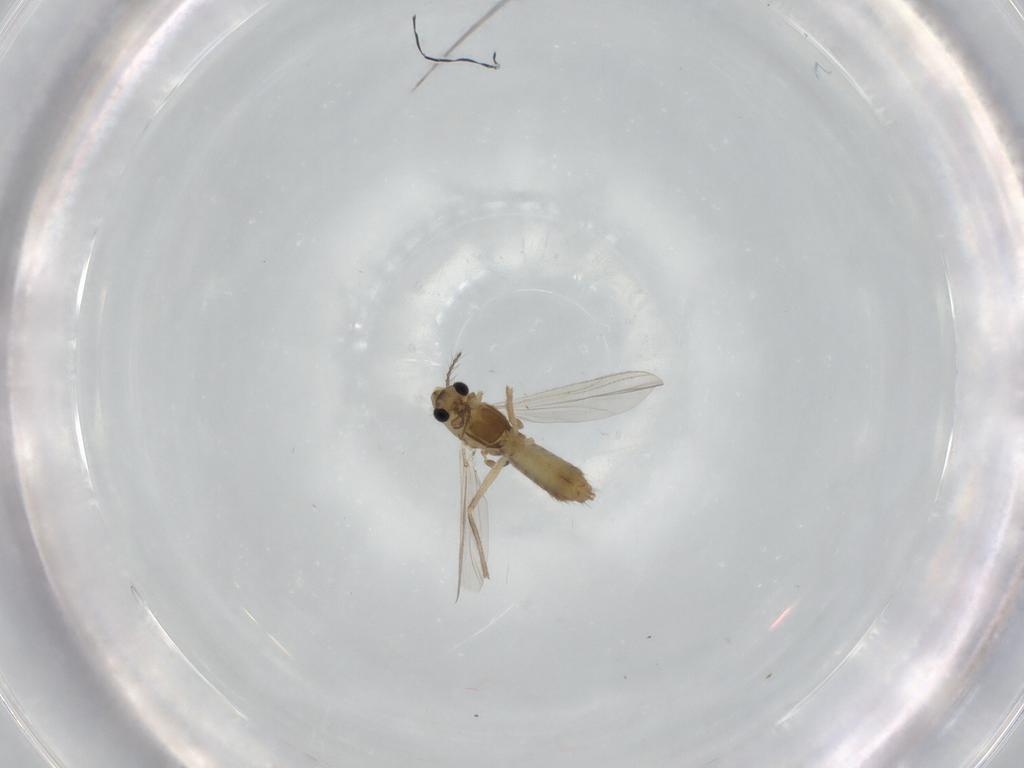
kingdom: Animalia
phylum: Arthropoda
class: Insecta
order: Diptera
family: Chironomidae
